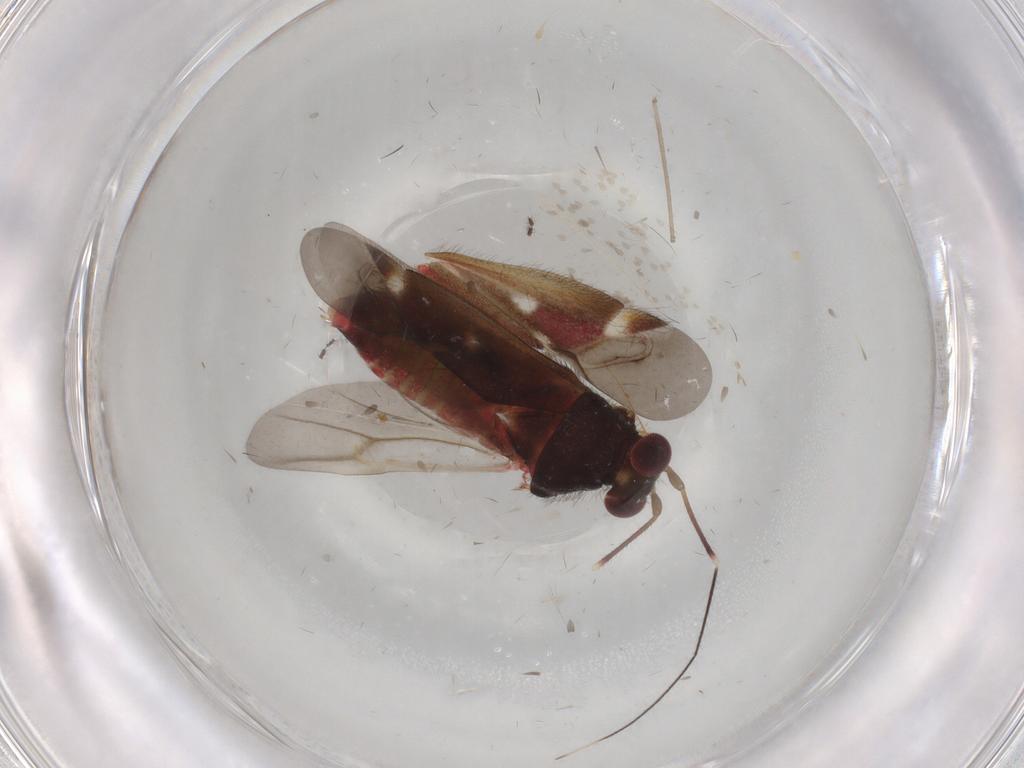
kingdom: Animalia
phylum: Arthropoda
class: Insecta
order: Hemiptera
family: Miridae
